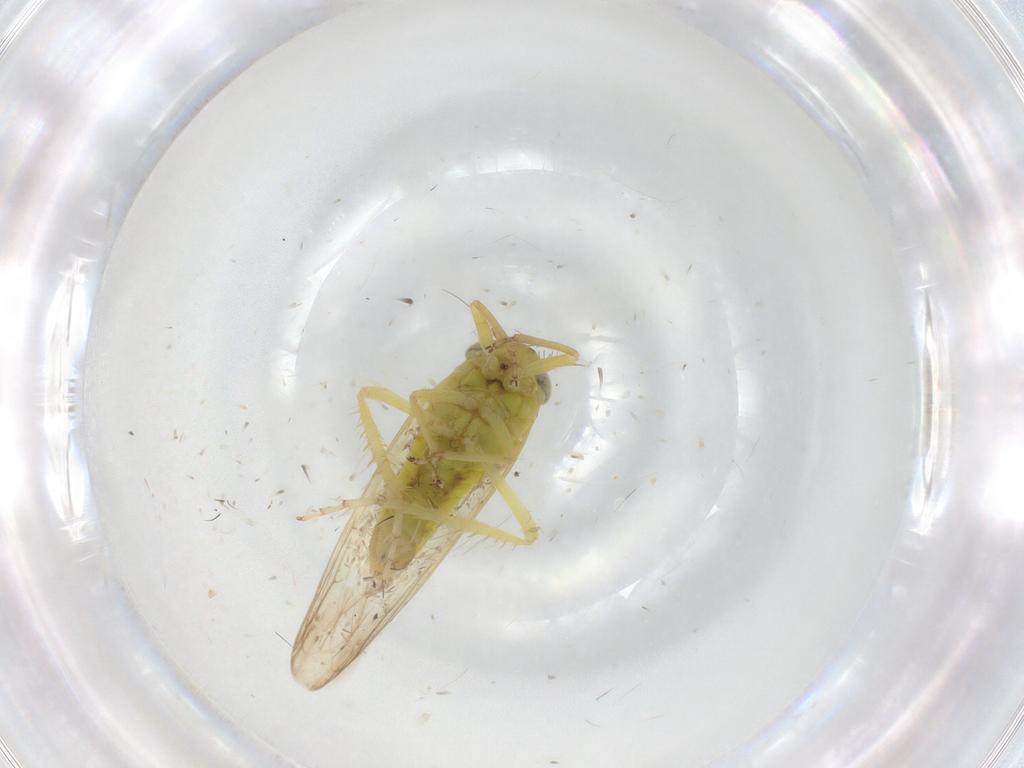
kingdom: Animalia
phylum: Arthropoda
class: Insecta
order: Hemiptera
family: Cicadellidae
